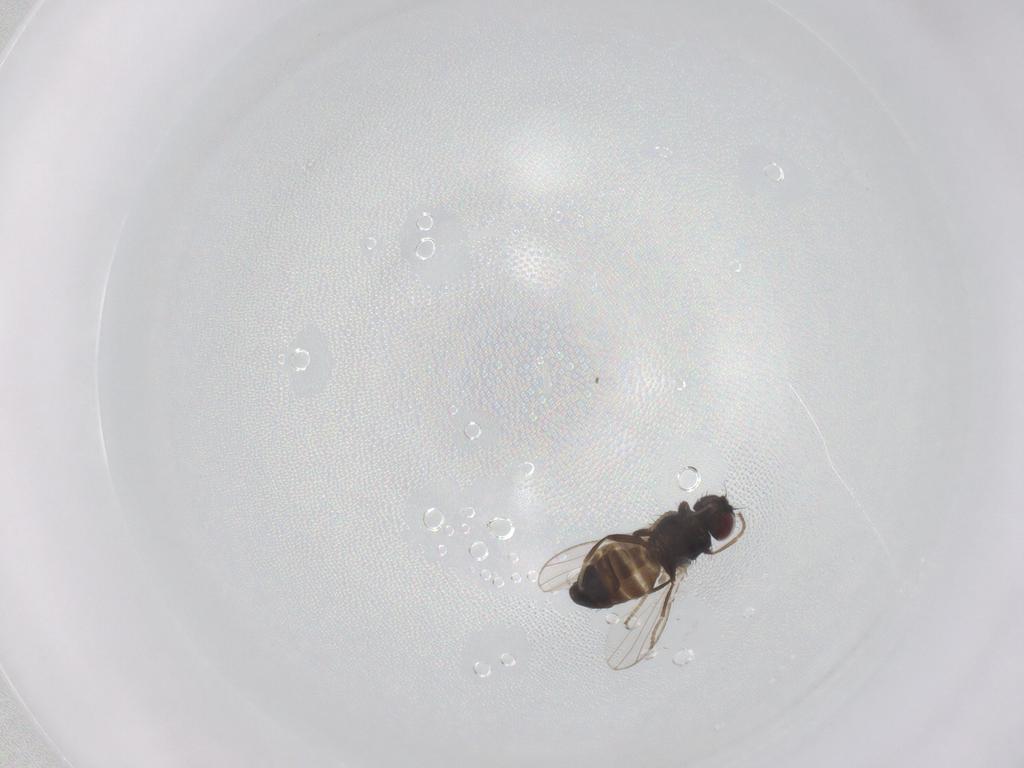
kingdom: Animalia
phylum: Arthropoda
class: Insecta
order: Diptera
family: Carnidae
